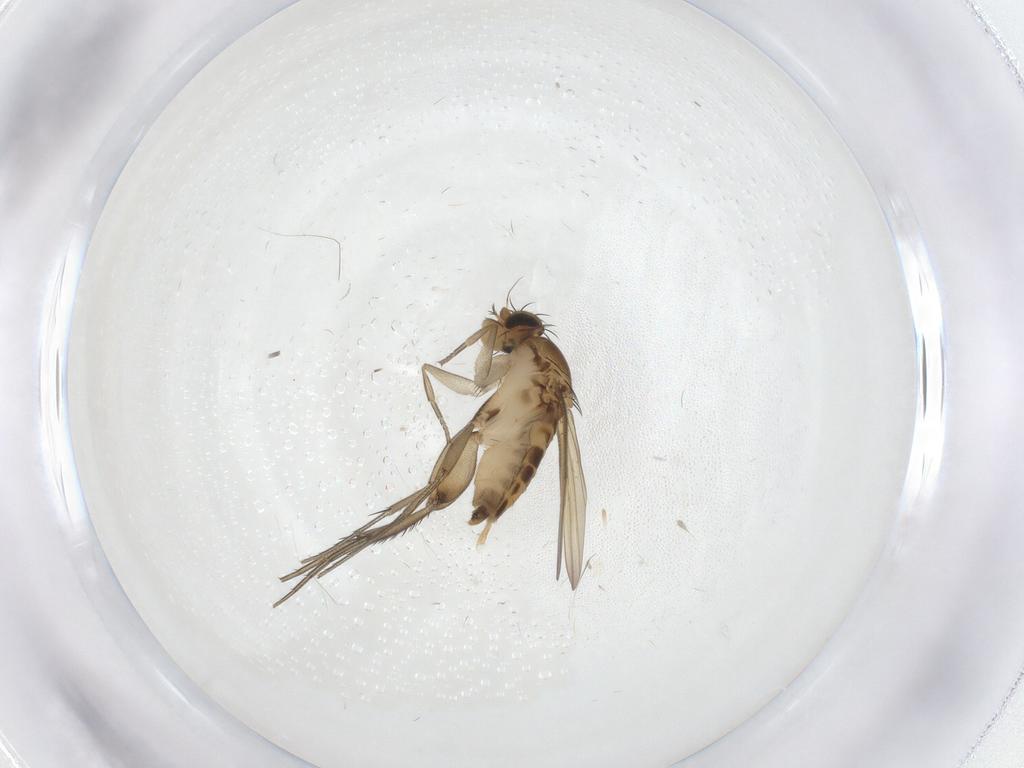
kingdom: Animalia
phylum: Arthropoda
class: Insecta
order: Diptera
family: Phoridae
